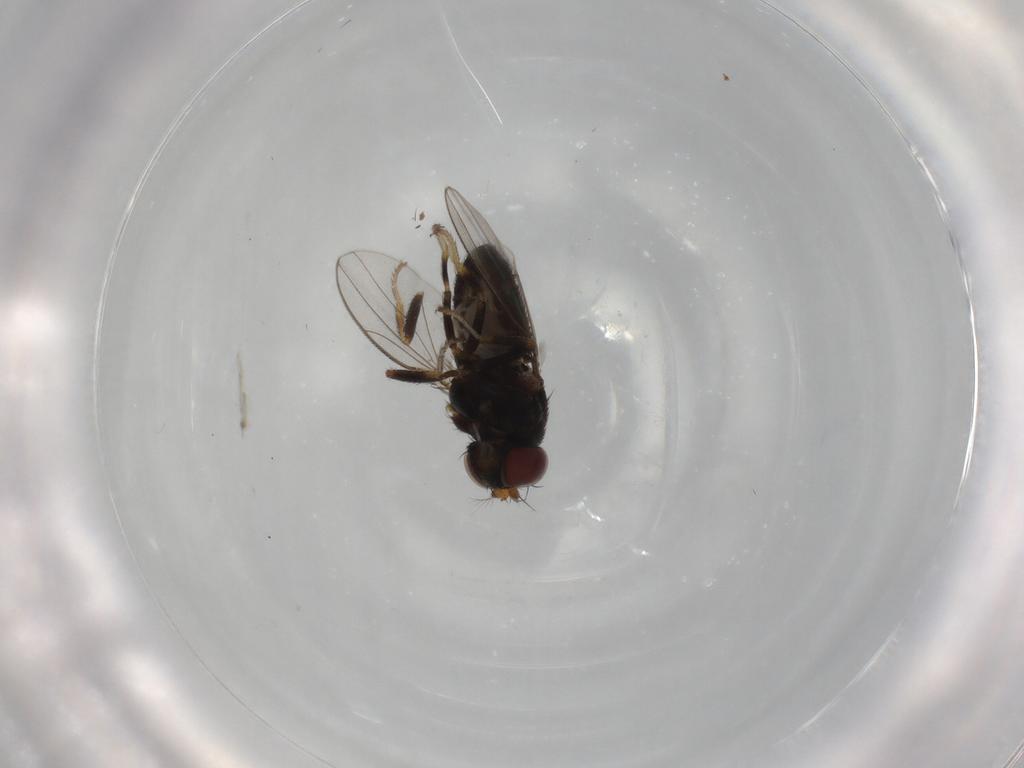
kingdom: Animalia
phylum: Arthropoda
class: Insecta
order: Diptera
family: Ephydridae
